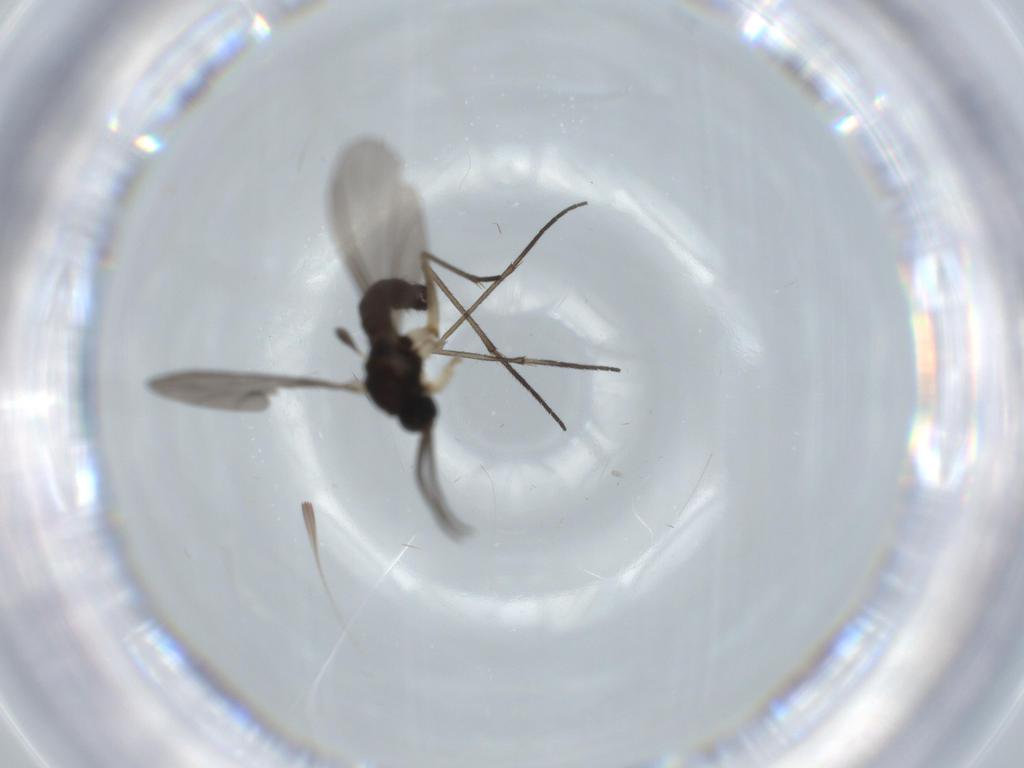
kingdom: Animalia
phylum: Arthropoda
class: Insecta
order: Diptera
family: Sciaridae
